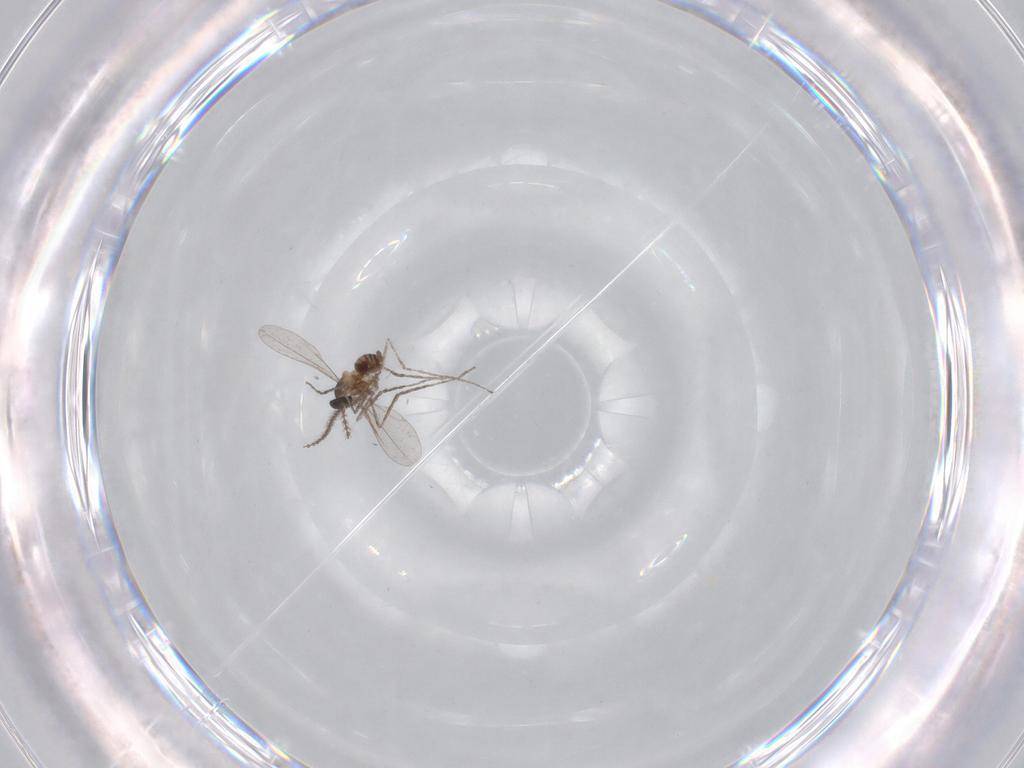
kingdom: Animalia
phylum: Arthropoda
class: Insecta
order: Diptera
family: Cecidomyiidae
